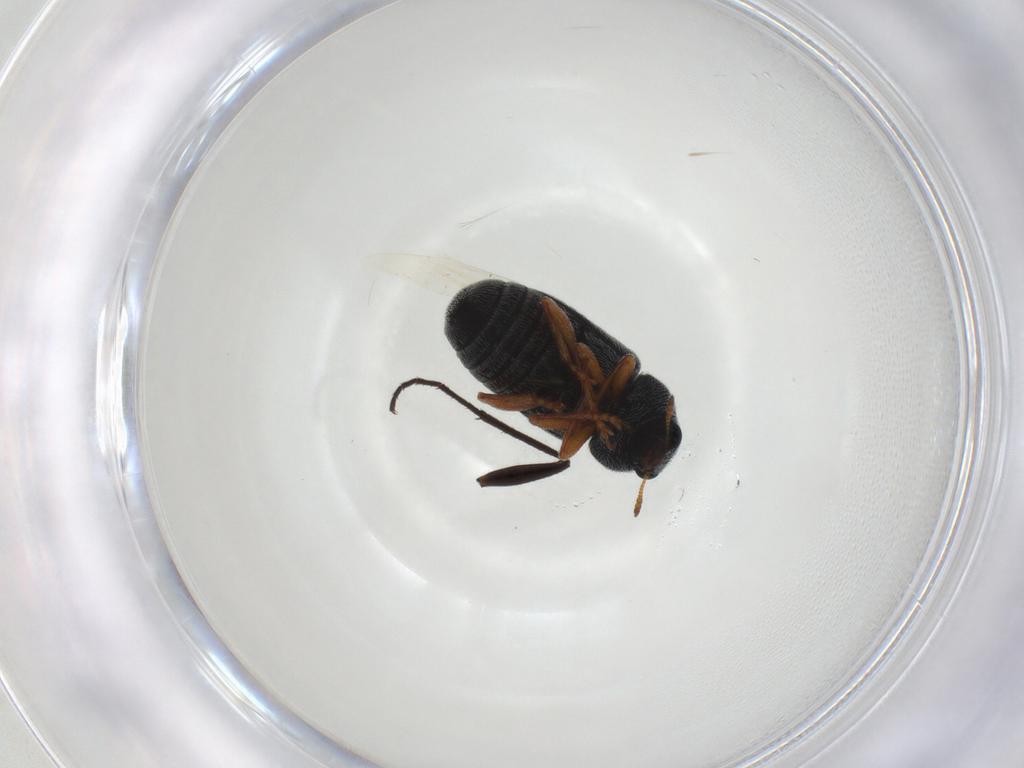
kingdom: Animalia
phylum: Arthropoda
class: Insecta
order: Coleoptera
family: Anthribidae
